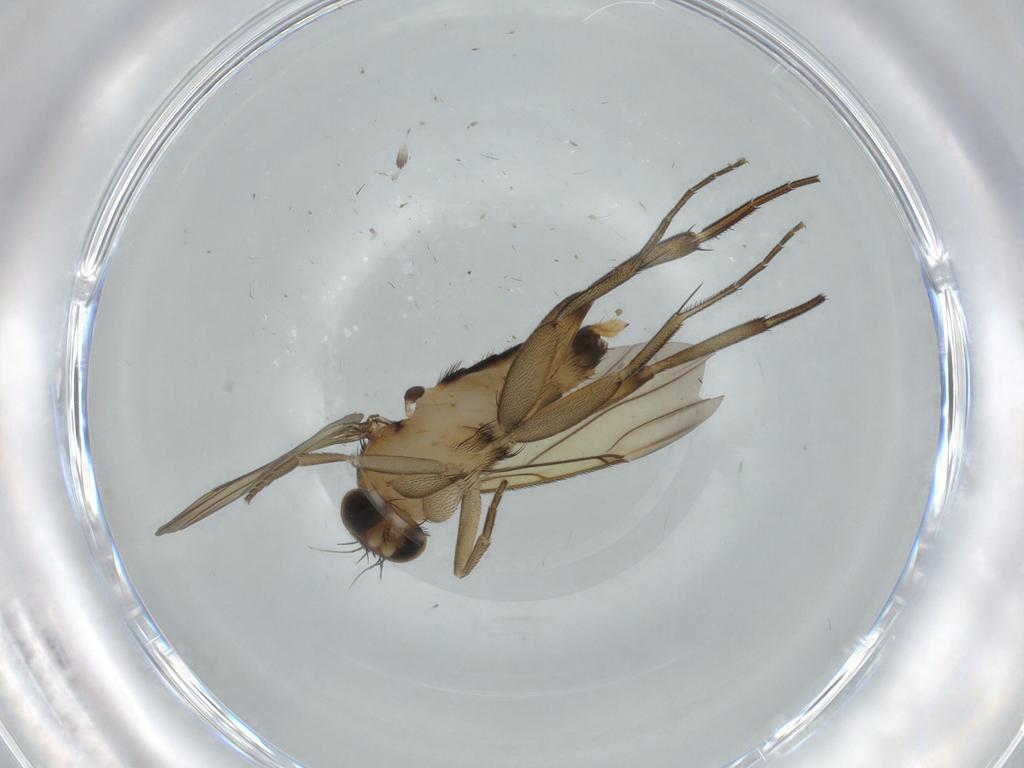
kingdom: Animalia
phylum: Arthropoda
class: Insecta
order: Diptera
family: Phoridae
